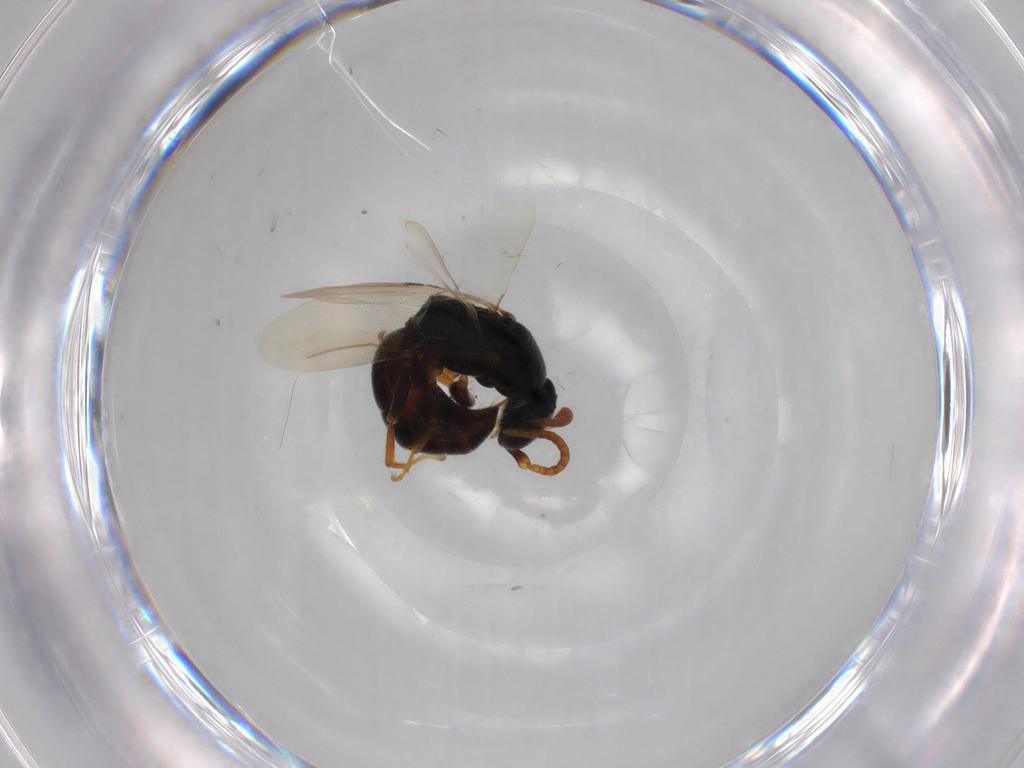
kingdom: Animalia
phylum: Arthropoda
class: Insecta
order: Hymenoptera
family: Bethylidae
